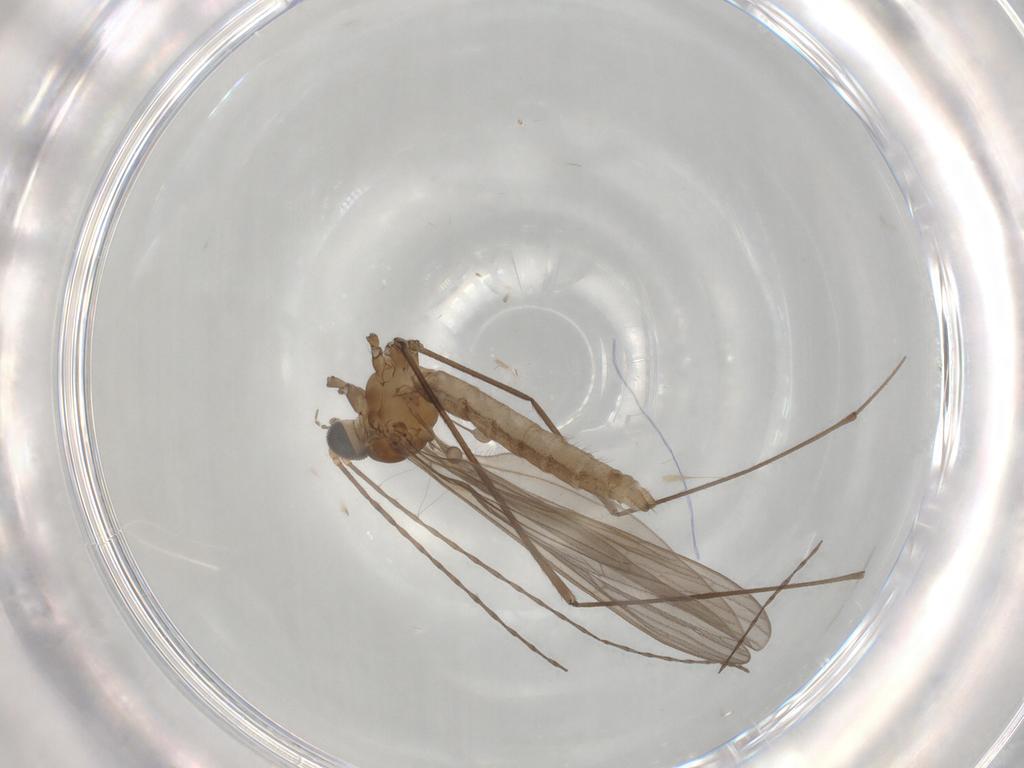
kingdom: Animalia
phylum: Arthropoda
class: Insecta
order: Diptera
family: Limoniidae
